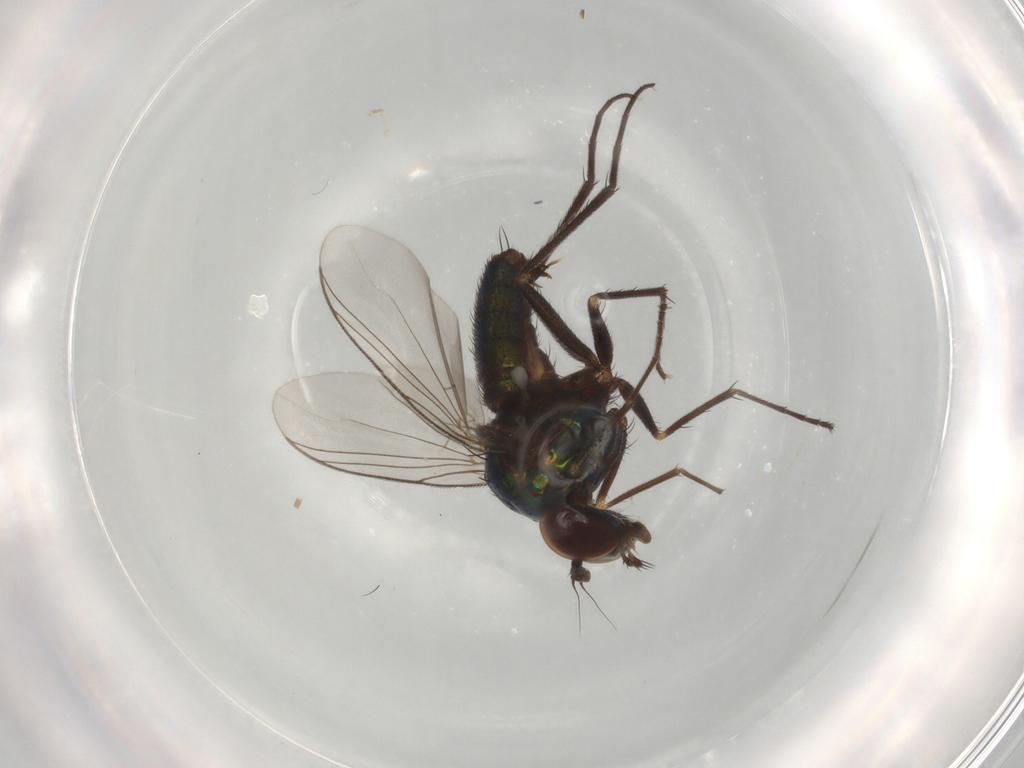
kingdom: Animalia
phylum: Arthropoda
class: Insecta
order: Diptera
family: Dolichopodidae
